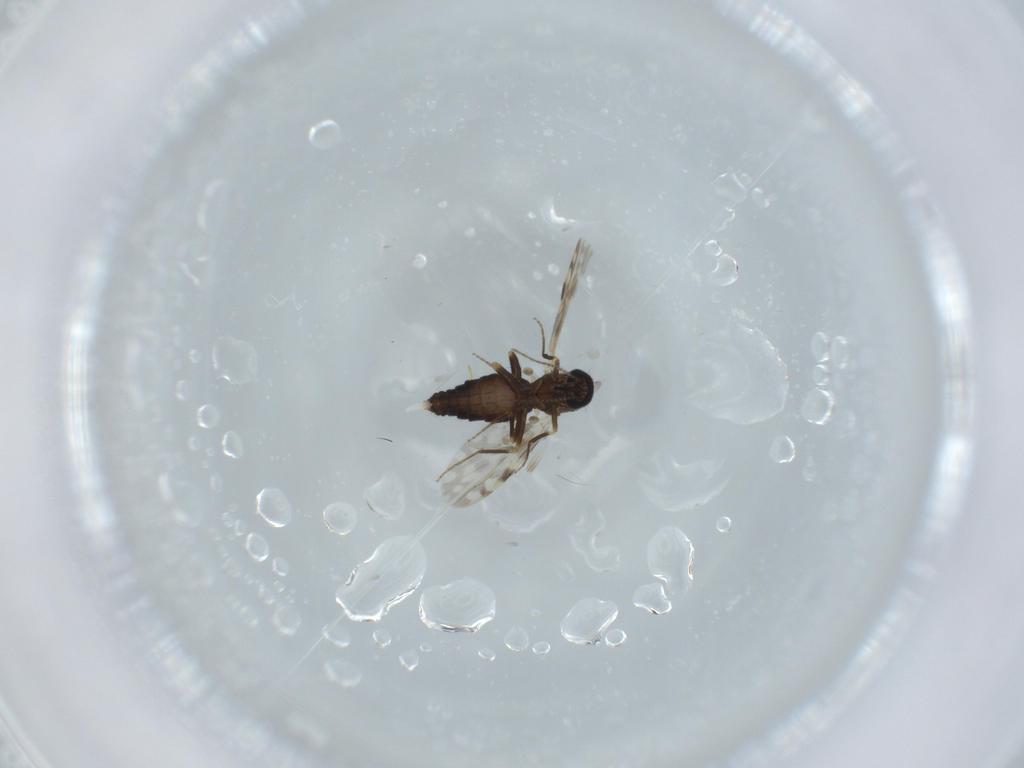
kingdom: Animalia
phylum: Arthropoda
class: Insecta
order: Diptera
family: Ceratopogonidae
